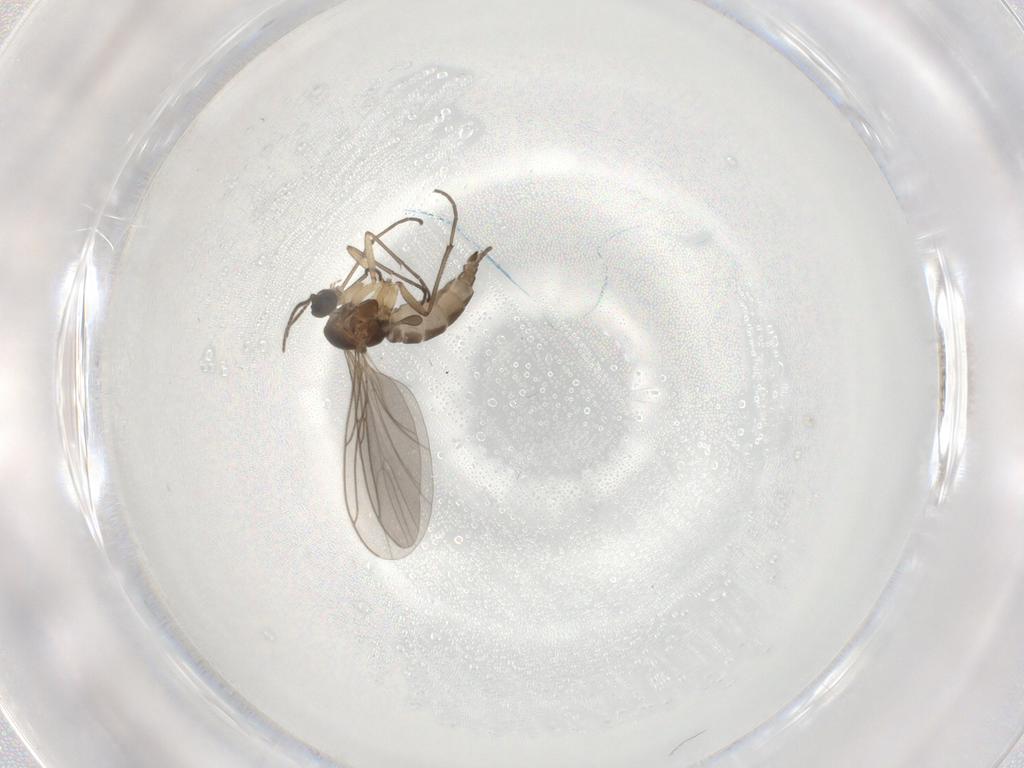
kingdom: Animalia
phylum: Arthropoda
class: Insecta
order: Diptera
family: Sciaridae
